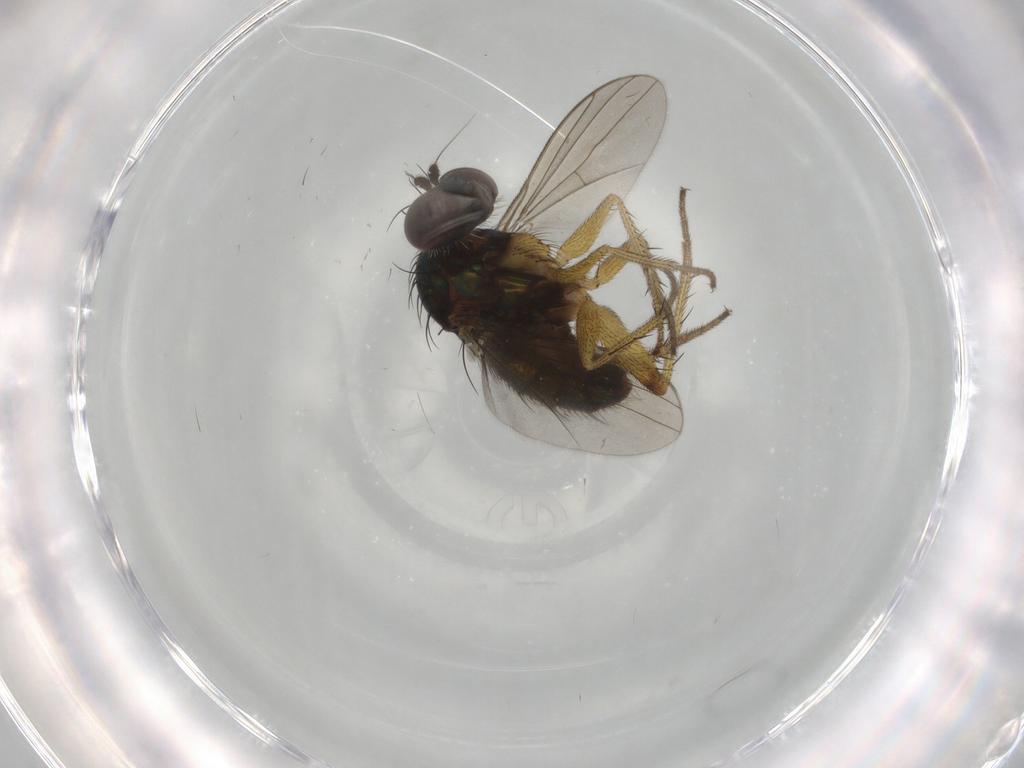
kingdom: Animalia
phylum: Arthropoda
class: Insecta
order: Diptera
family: Dolichopodidae
